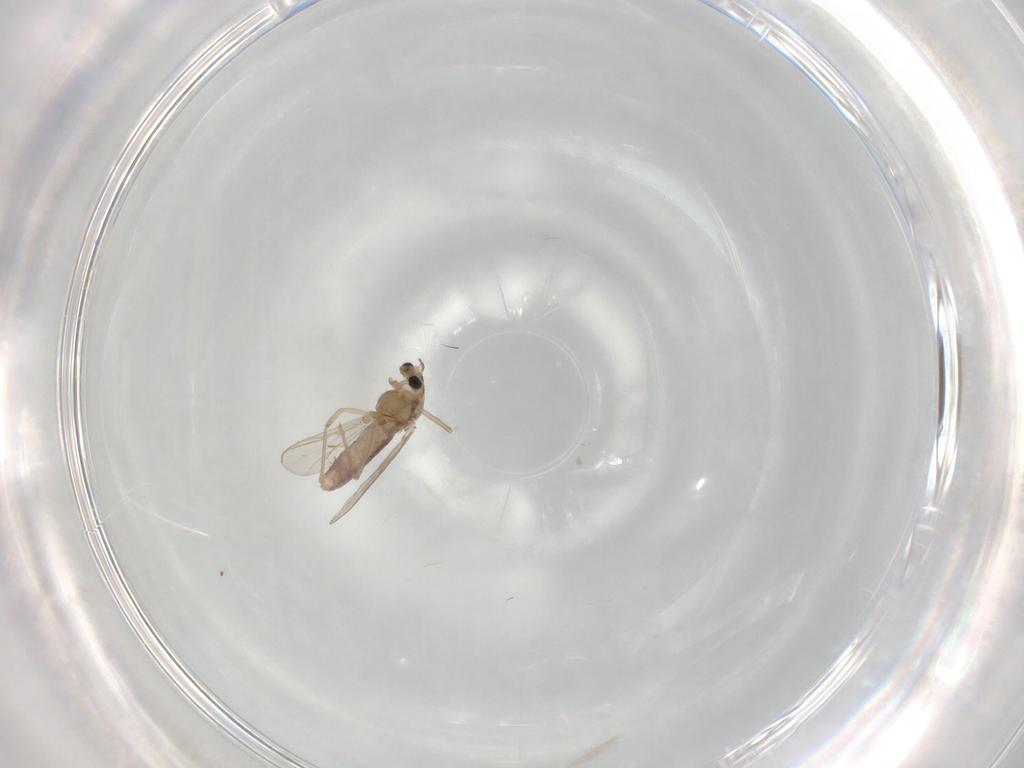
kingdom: Animalia
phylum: Arthropoda
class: Insecta
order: Diptera
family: Chironomidae
